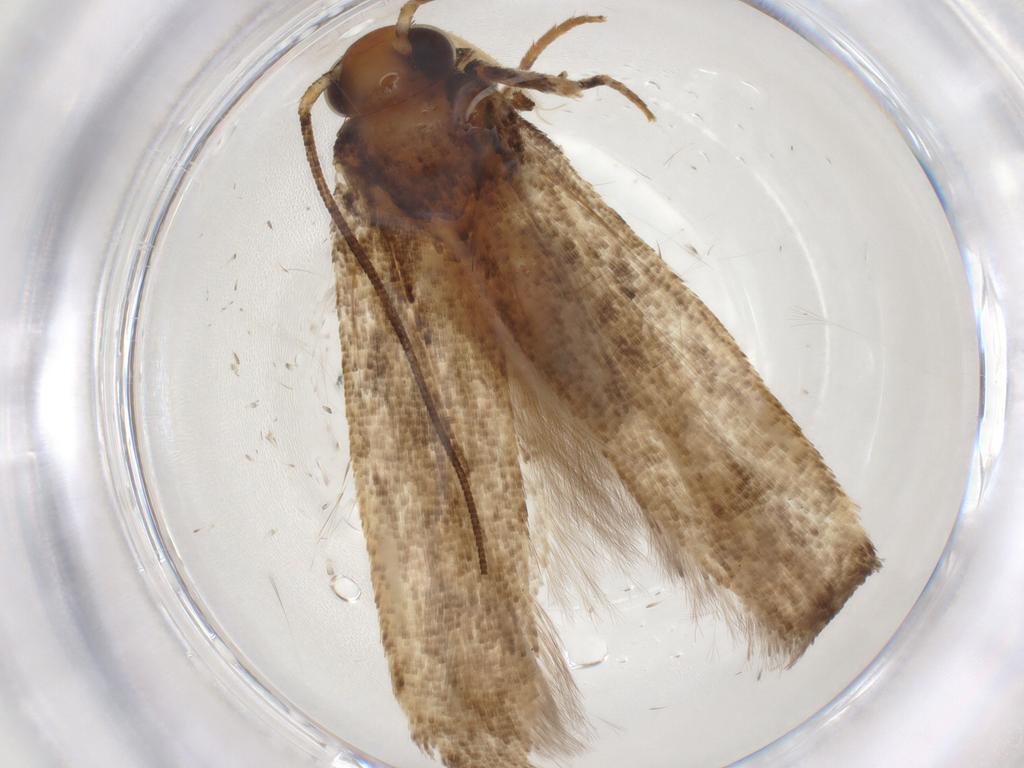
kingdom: Animalia
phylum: Arthropoda
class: Insecta
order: Lepidoptera
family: Gelechiidae
